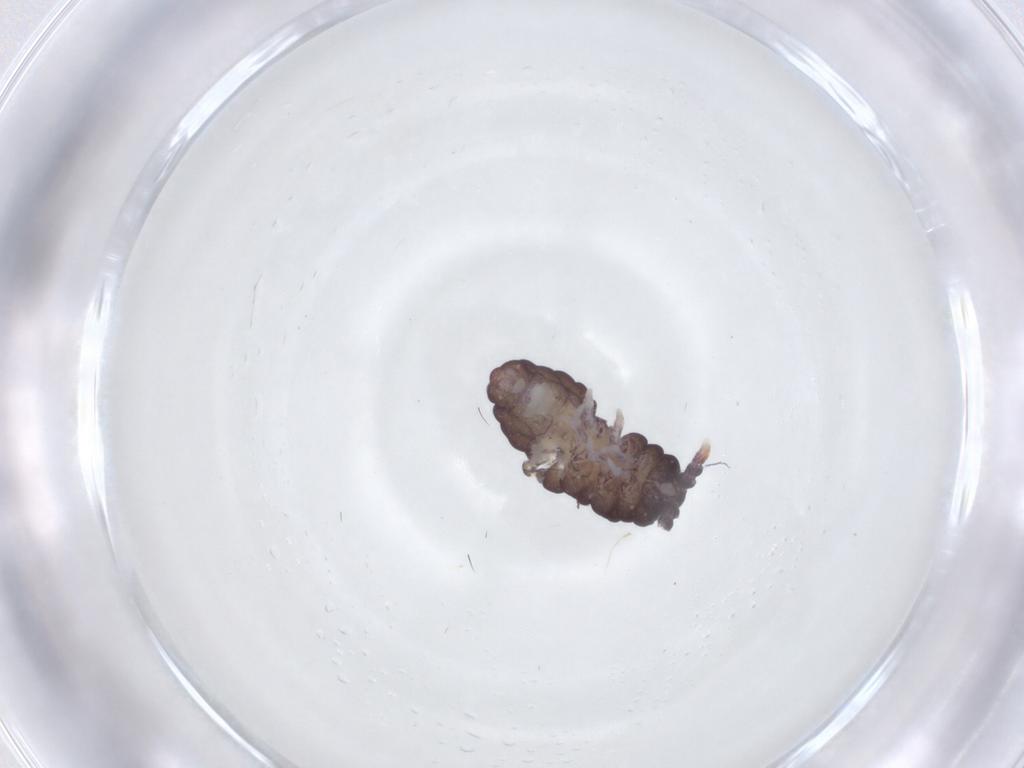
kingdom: Animalia
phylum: Arthropoda
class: Collembola
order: Poduromorpha
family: Neanuridae
